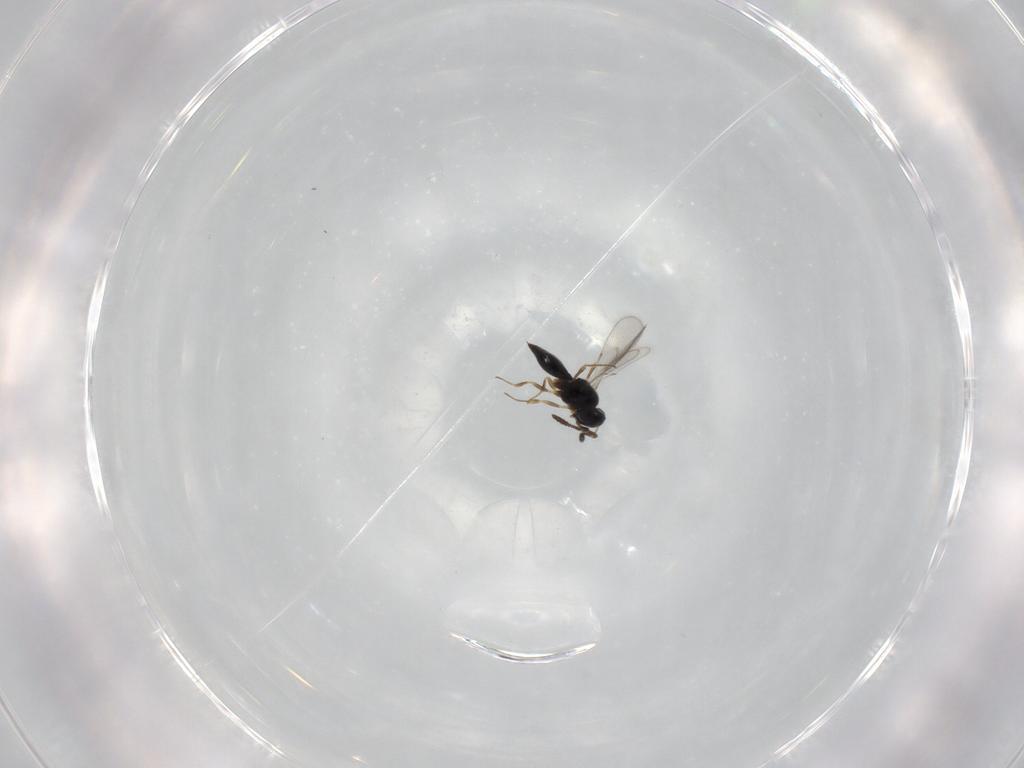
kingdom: Animalia
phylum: Arthropoda
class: Insecta
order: Hymenoptera
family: Scelionidae
